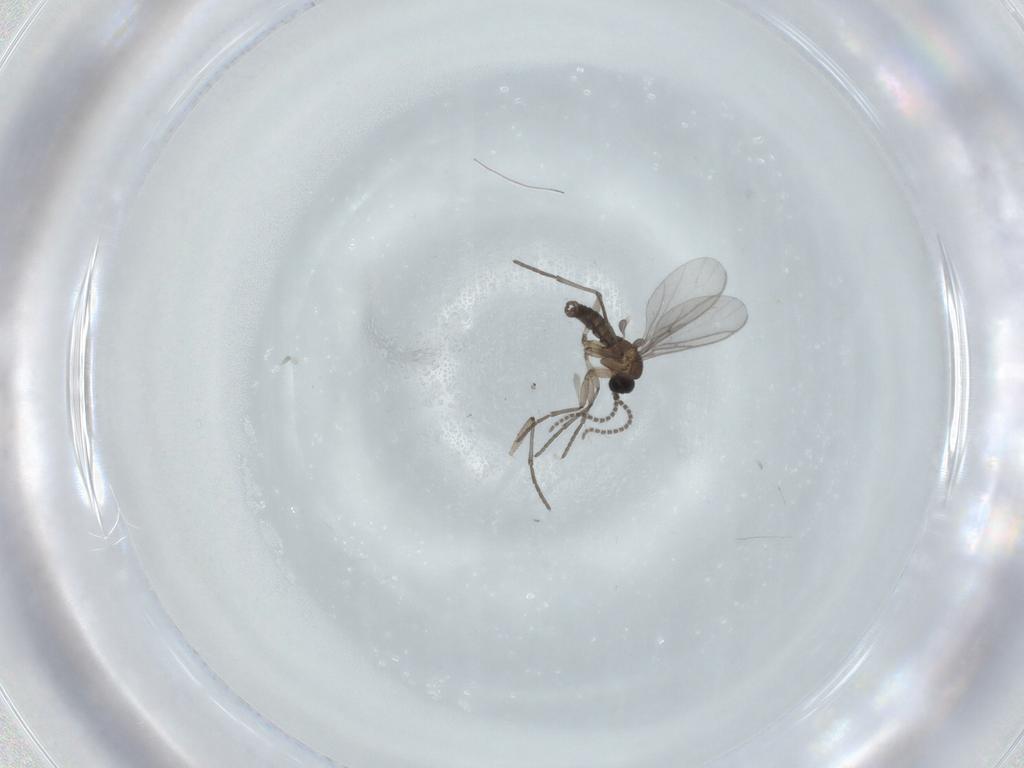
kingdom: Animalia
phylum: Arthropoda
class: Insecta
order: Diptera
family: Sciaridae
